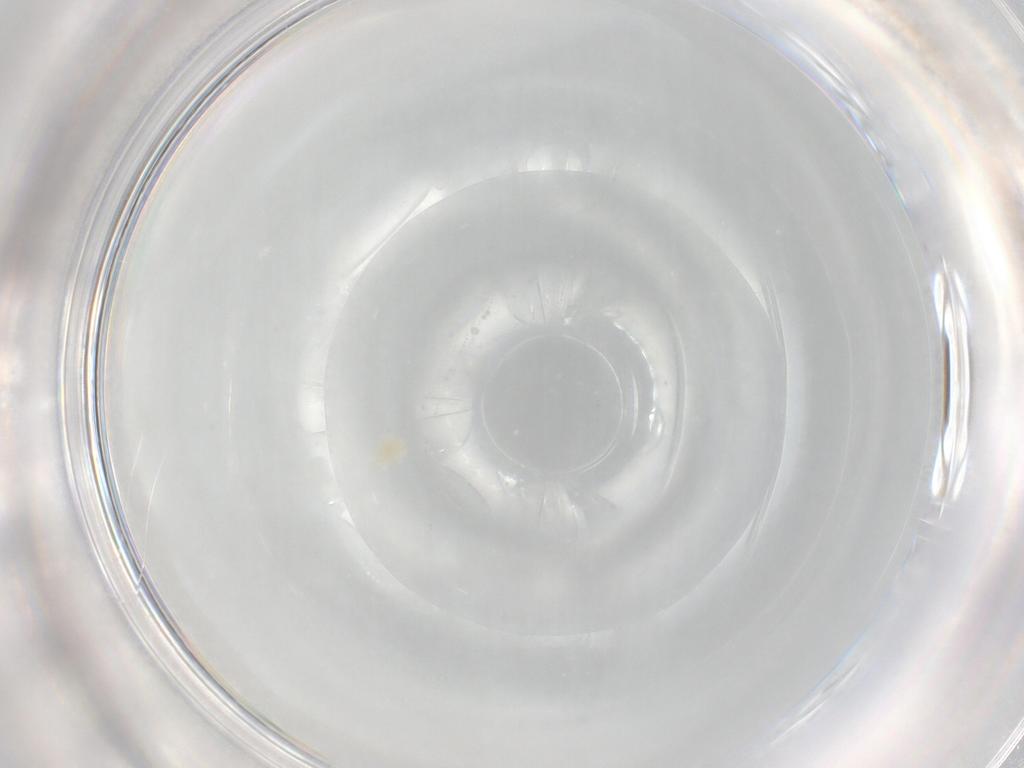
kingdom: Animalia
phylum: Arthropoda
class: Arachnida
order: Trombidiformes
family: Eupodidae
